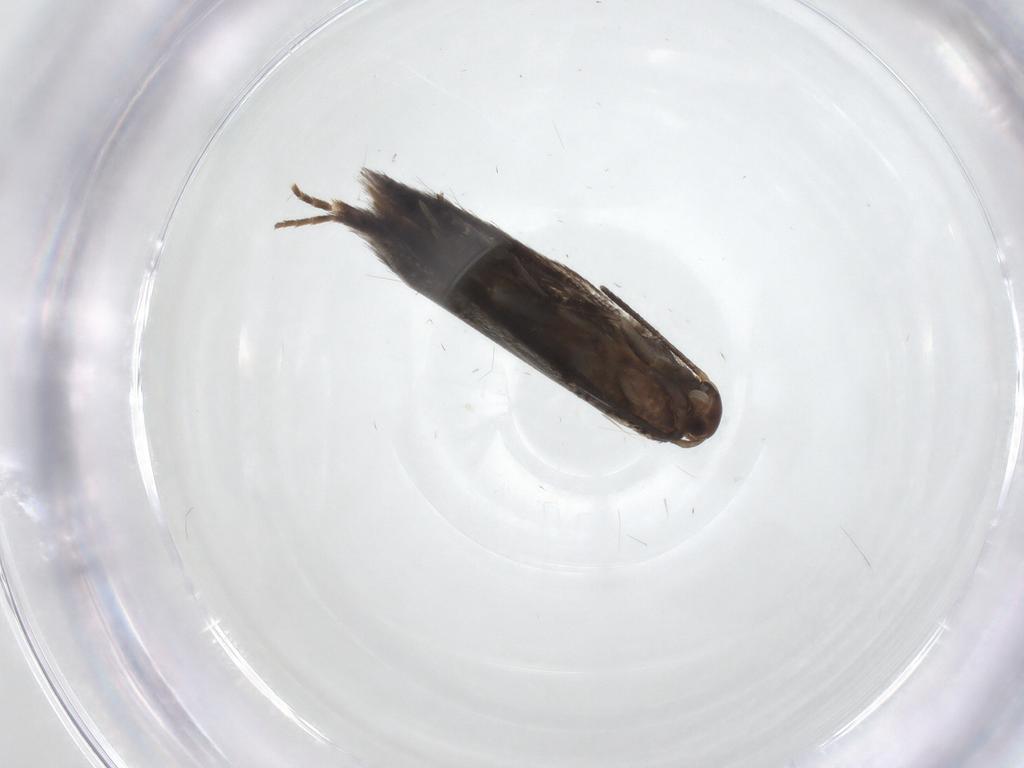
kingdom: Animalia
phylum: Arthropoda
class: Insecta
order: Lepidoptera
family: Elachistidae
